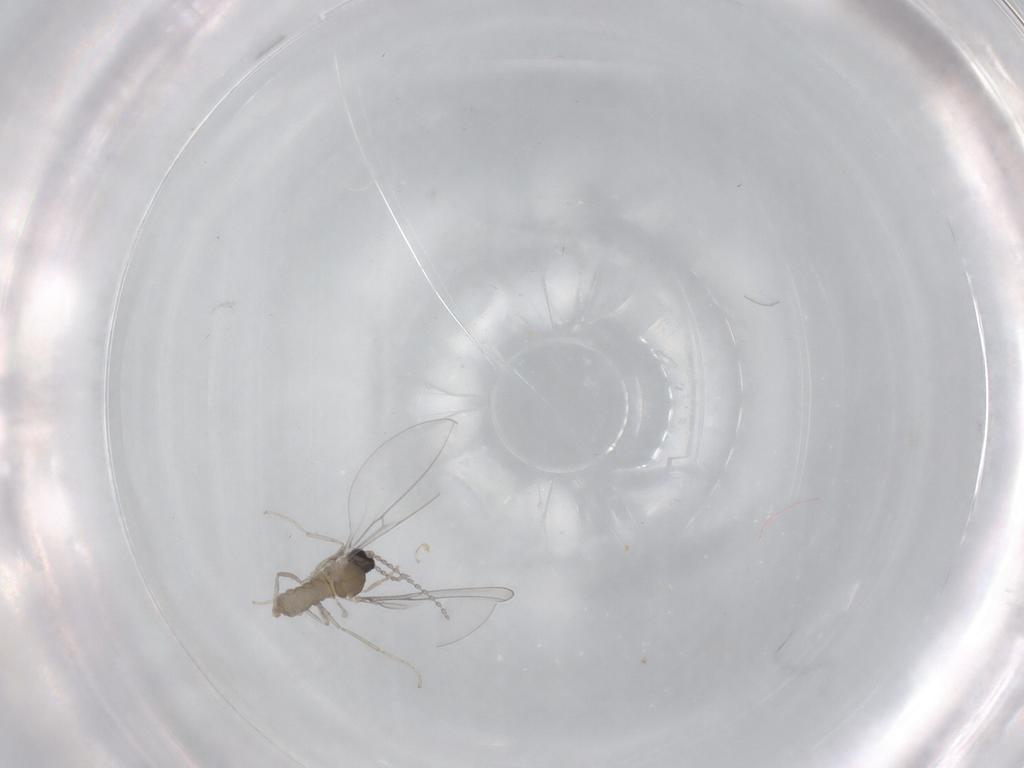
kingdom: Animalia
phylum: Arthropoda
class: Insecta
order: Diptera
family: Cecidomyiidae
